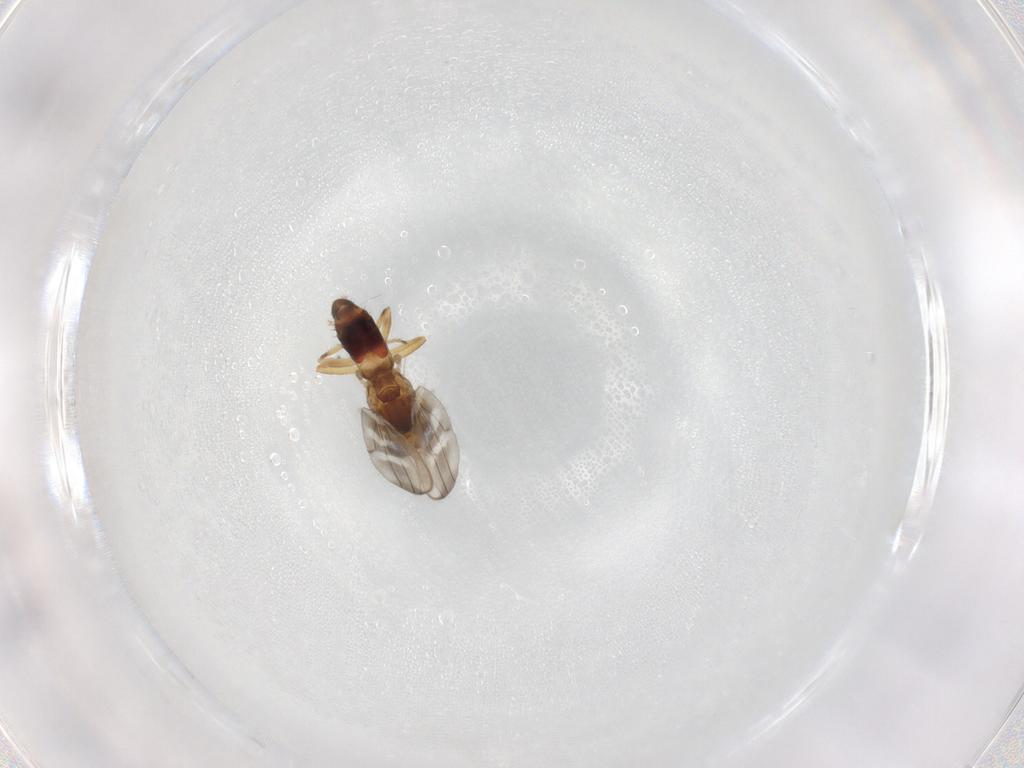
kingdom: Animalia
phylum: Arthropoda
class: Insecta
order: Diptera
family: Periscelididae
